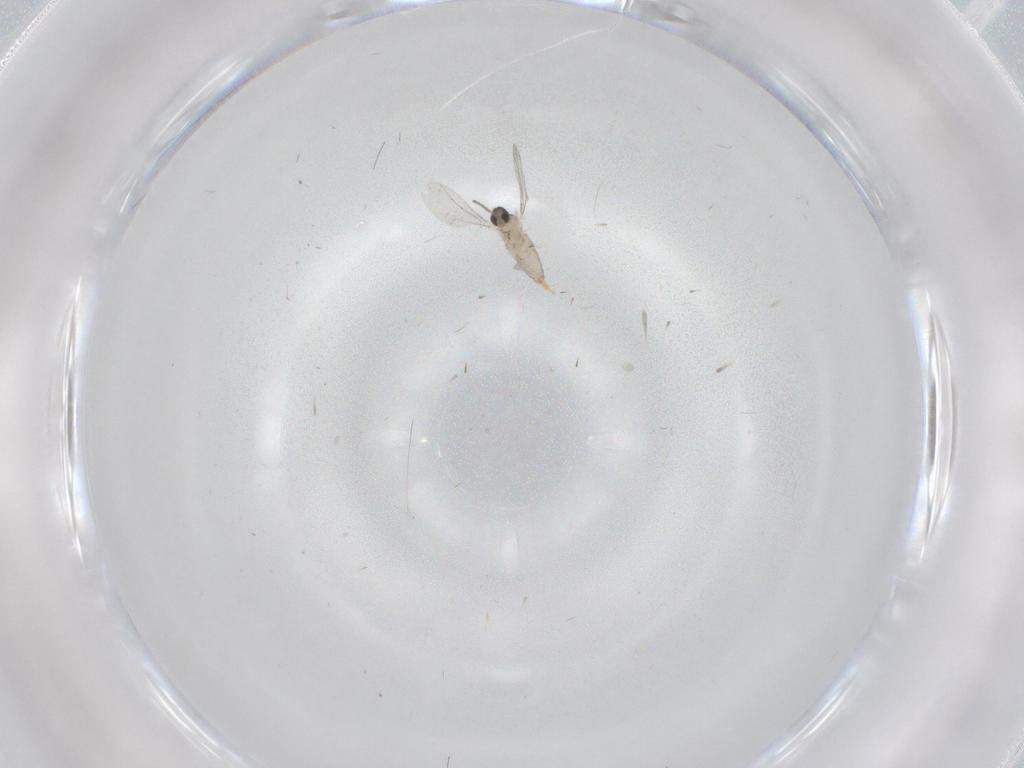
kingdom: Animalia
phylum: Arthropoda
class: Insecta
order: Diptera
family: Cecidomyiidae
